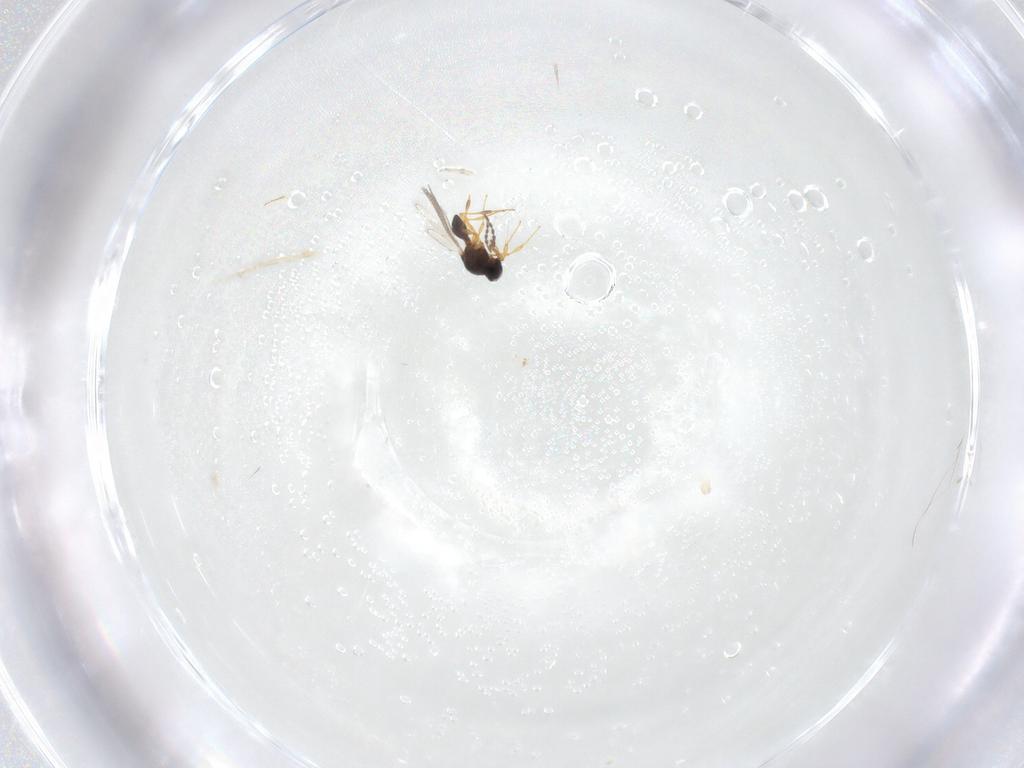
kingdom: Animalia
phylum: Arthropoda
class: Insecta
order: Hymenoptera
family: Platygastridae
